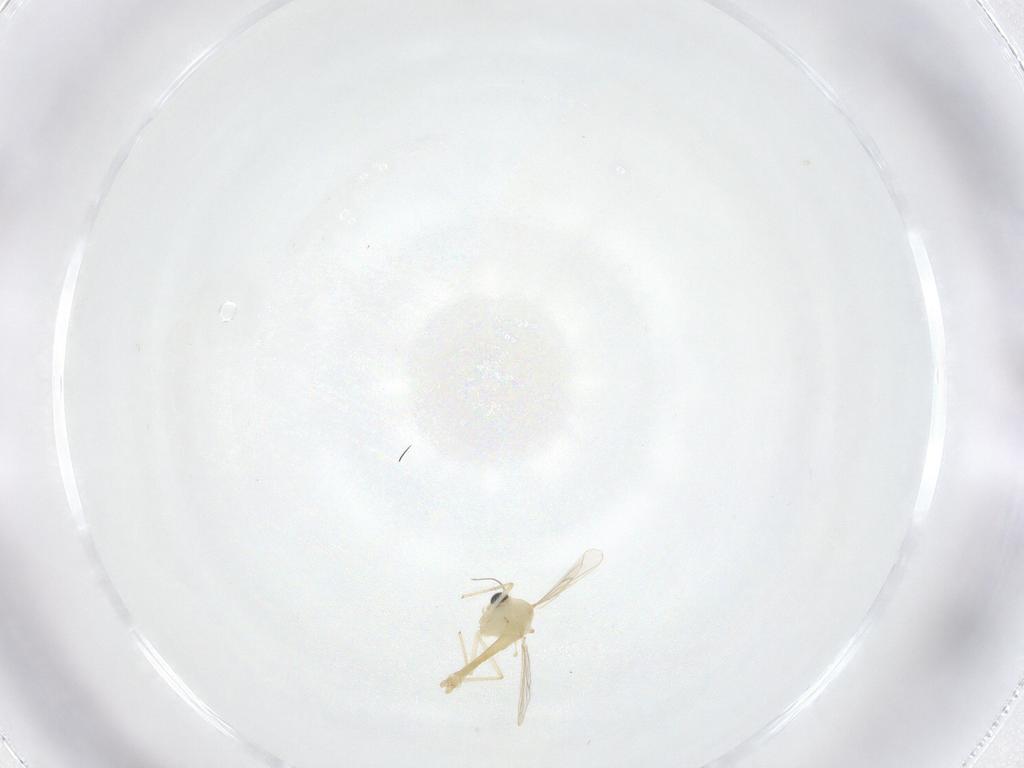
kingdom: Animalia
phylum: Arthropoda
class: Insecta
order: Diptera
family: Chironomidae
